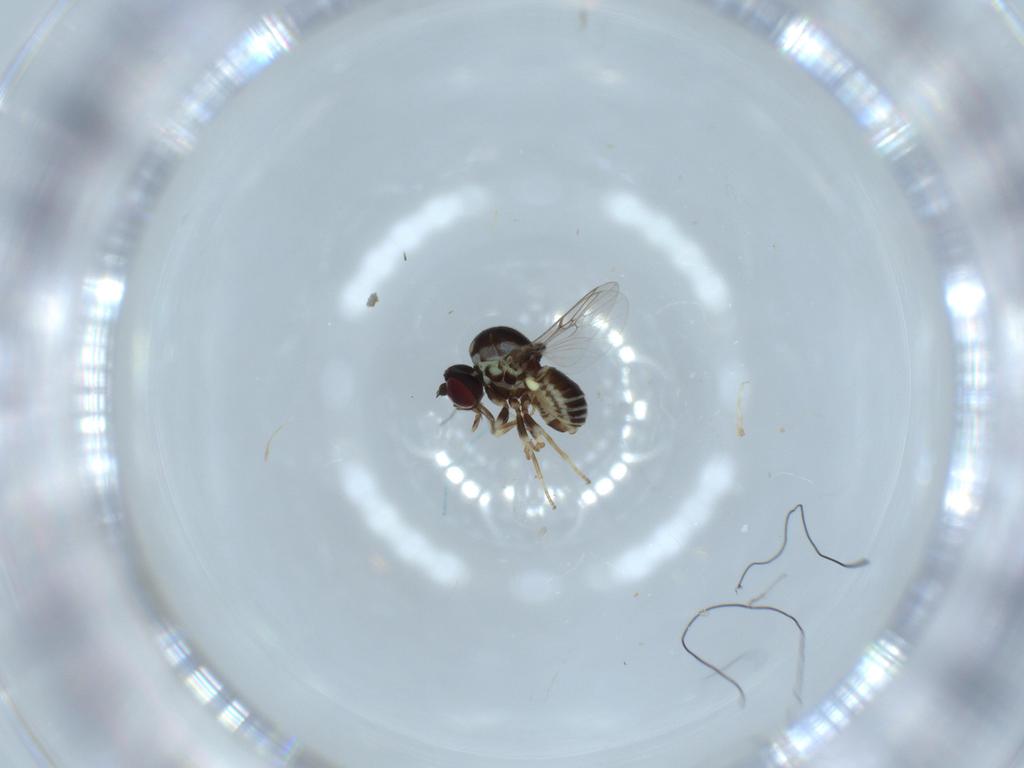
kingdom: Animalia
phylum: Arthropoda
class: Insecta
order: Diptera
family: Bombyliidae
